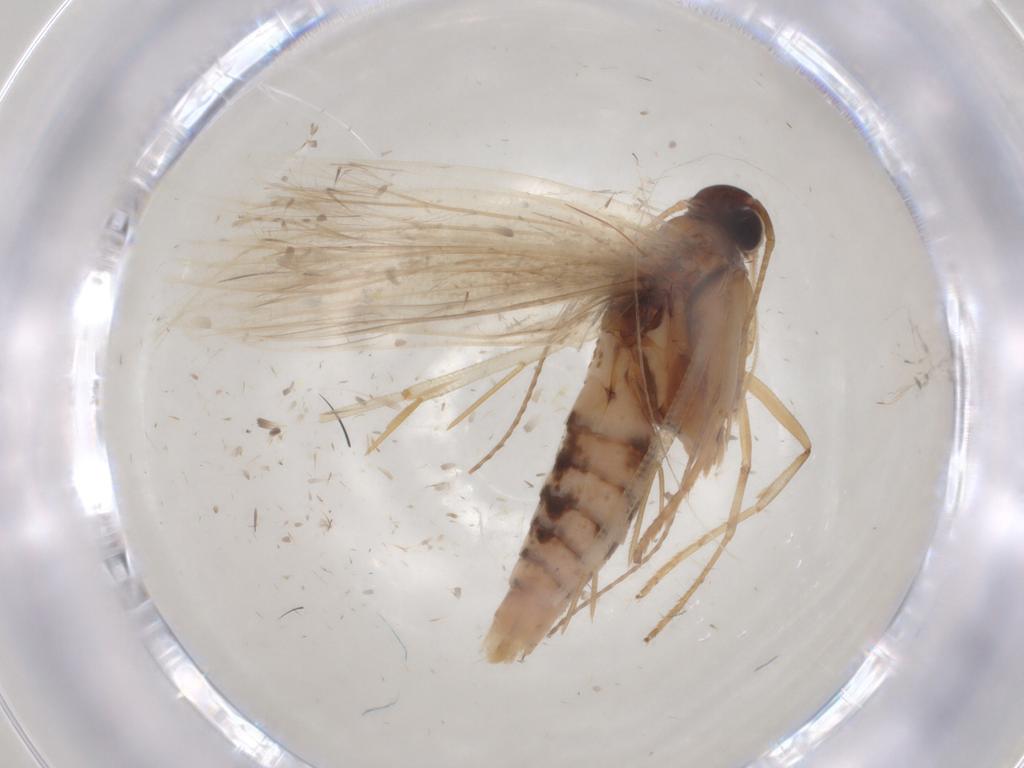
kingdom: Animalia
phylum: Arthropoda
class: Insecta
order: Lepidoptera
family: Gelechiidae
